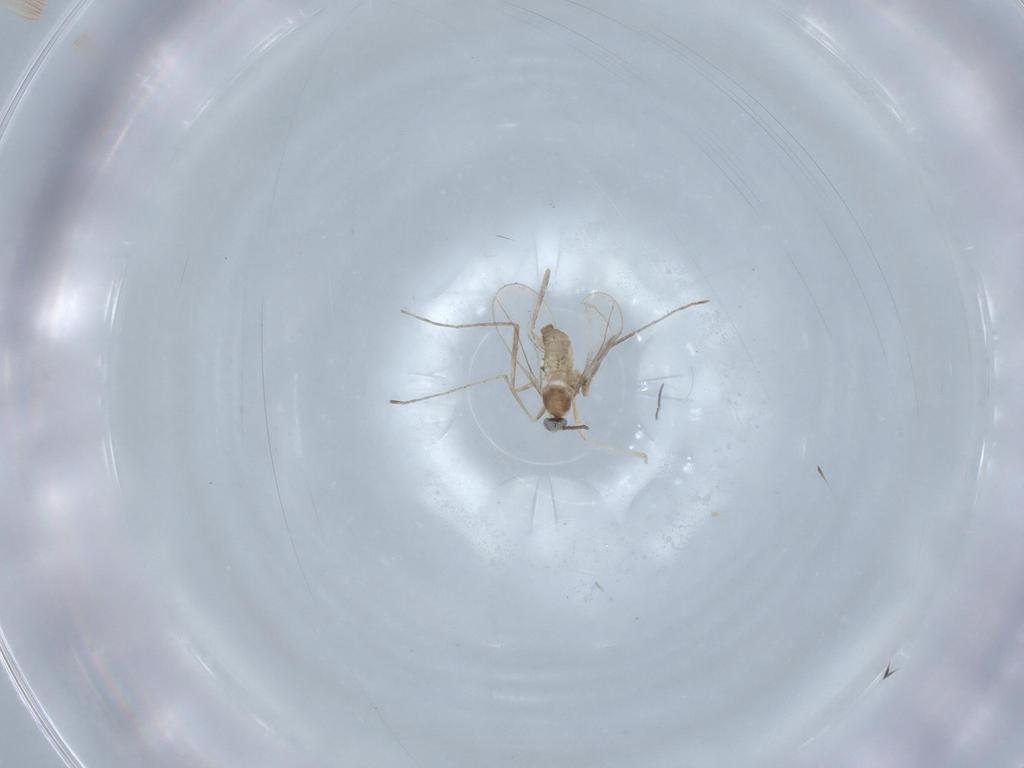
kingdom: Animalia
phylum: Arthropoda
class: Insecta
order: Diptera
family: Cecidomyiidae
